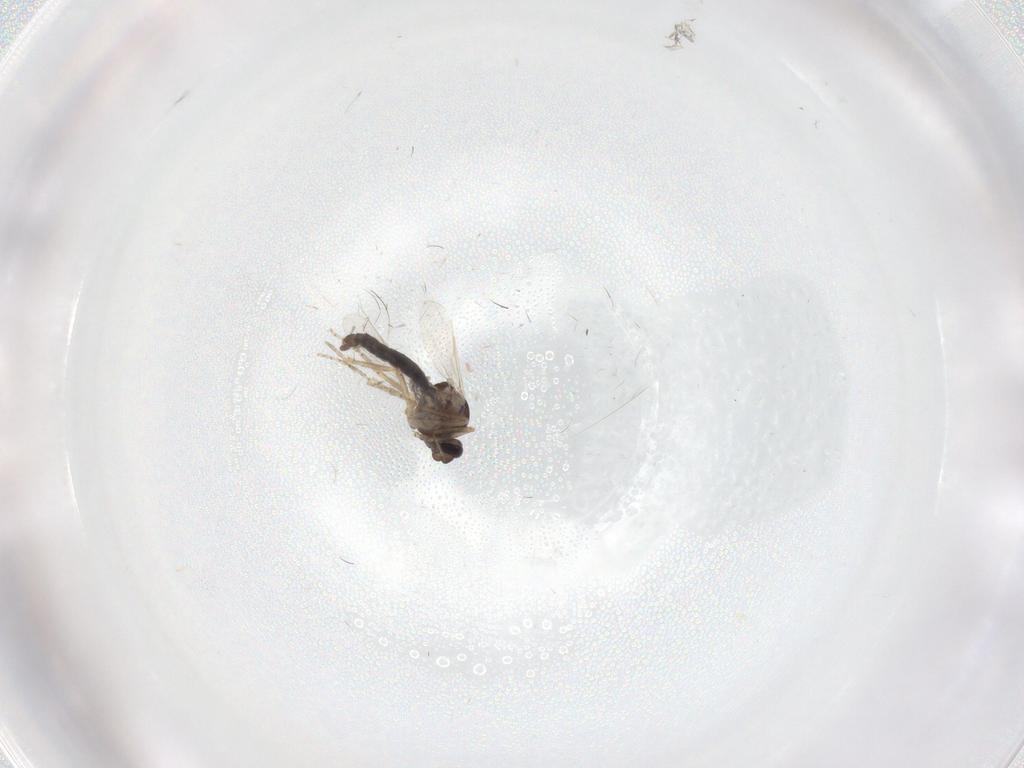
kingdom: Animalia
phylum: Arthropoda
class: Insecta
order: Diptera
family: Ceratopogonidae
